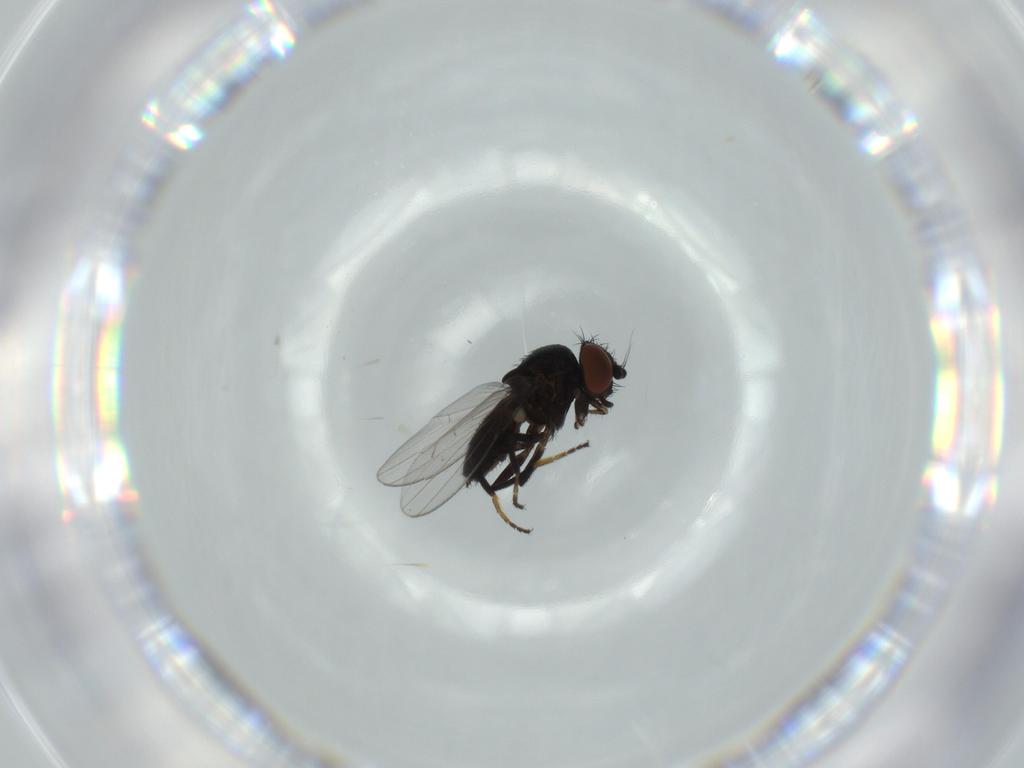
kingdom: Animalia
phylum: Arthropoda
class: Insecta
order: Diptera
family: Milichiidae
